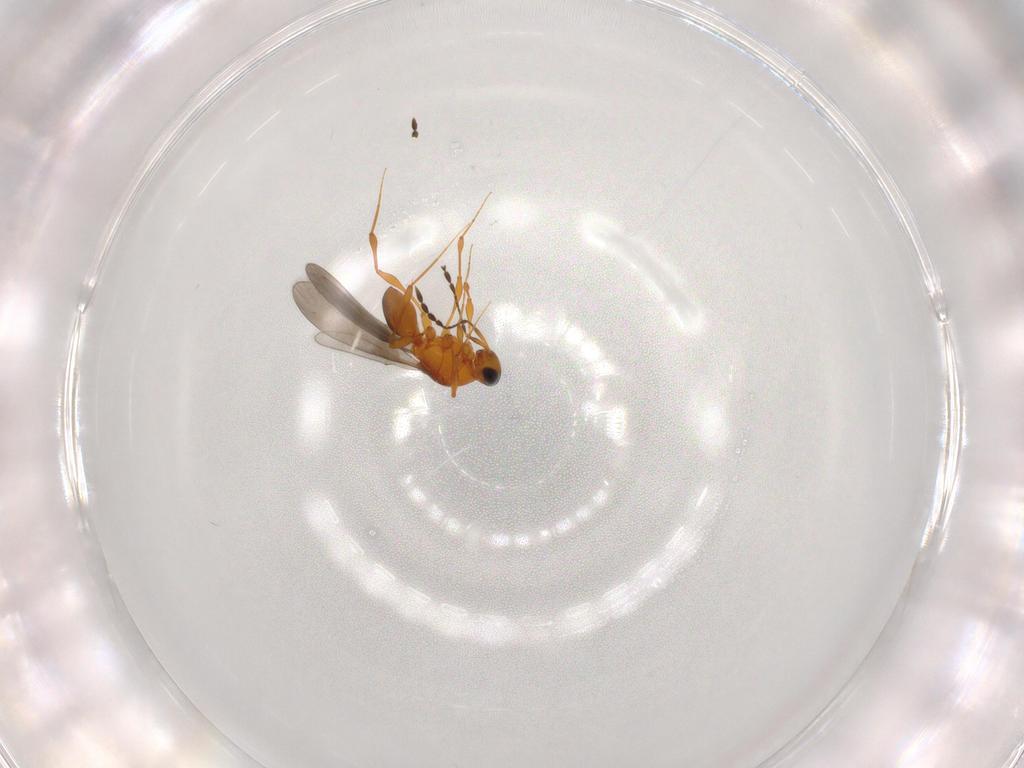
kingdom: Animalia
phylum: Arthropoda
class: Insecta
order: Hymenoptera
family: Platygastridae
